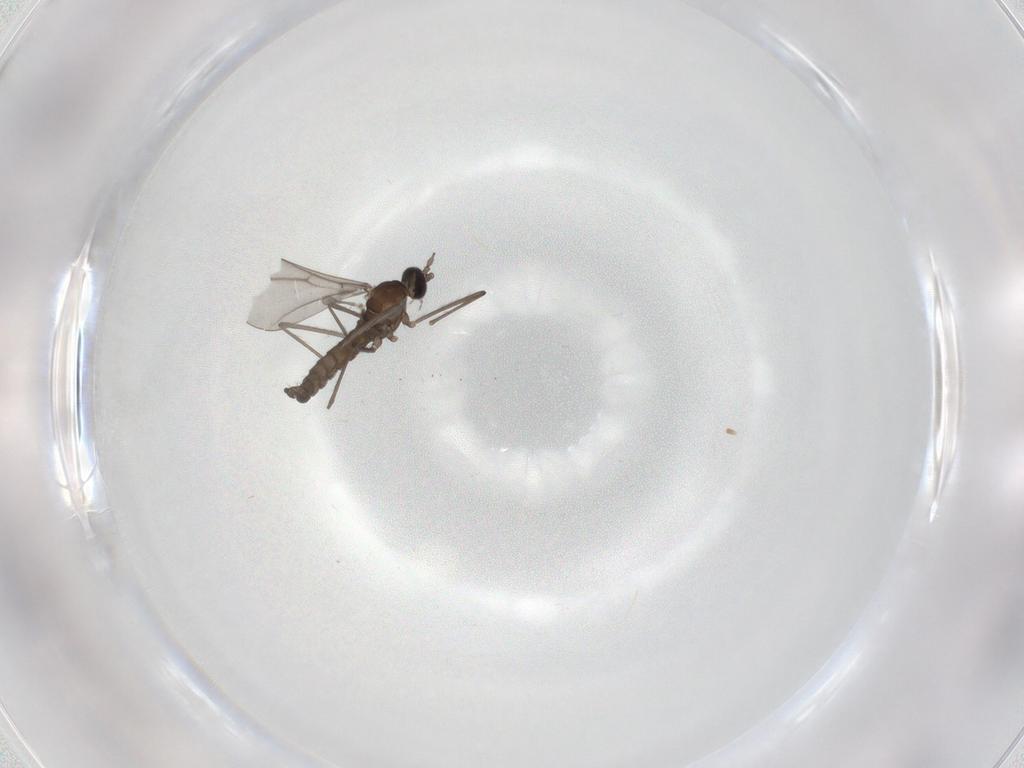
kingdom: Animalia
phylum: Arthropoda
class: Insecta
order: Diptera
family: Cecidomyiidae
